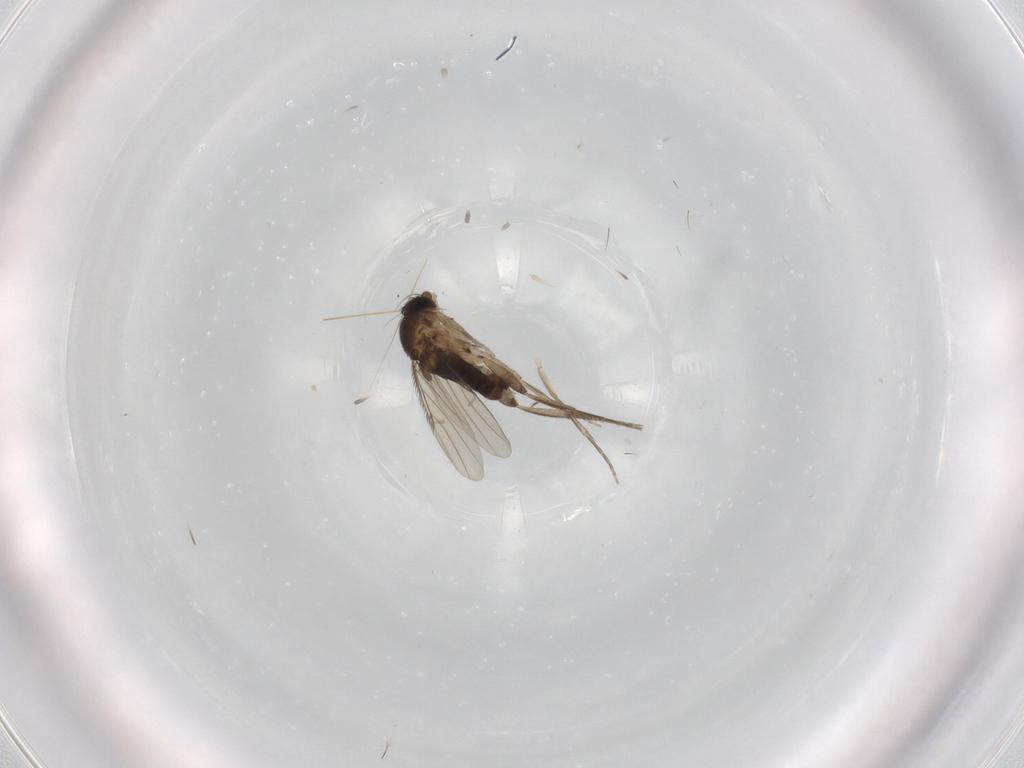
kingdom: Animalia
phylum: Arthropoda
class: Insecta
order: Diptera
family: Phoridae
